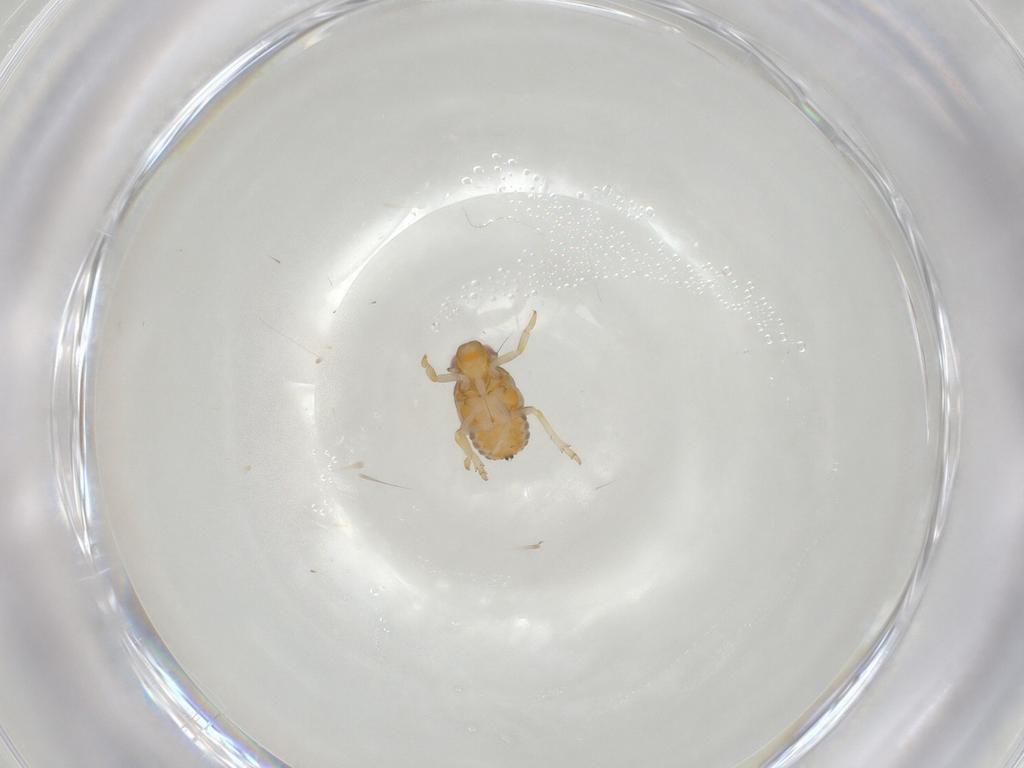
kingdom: Animalia
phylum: Arthropoda
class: Insecta
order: Hemiptera
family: Issidae
